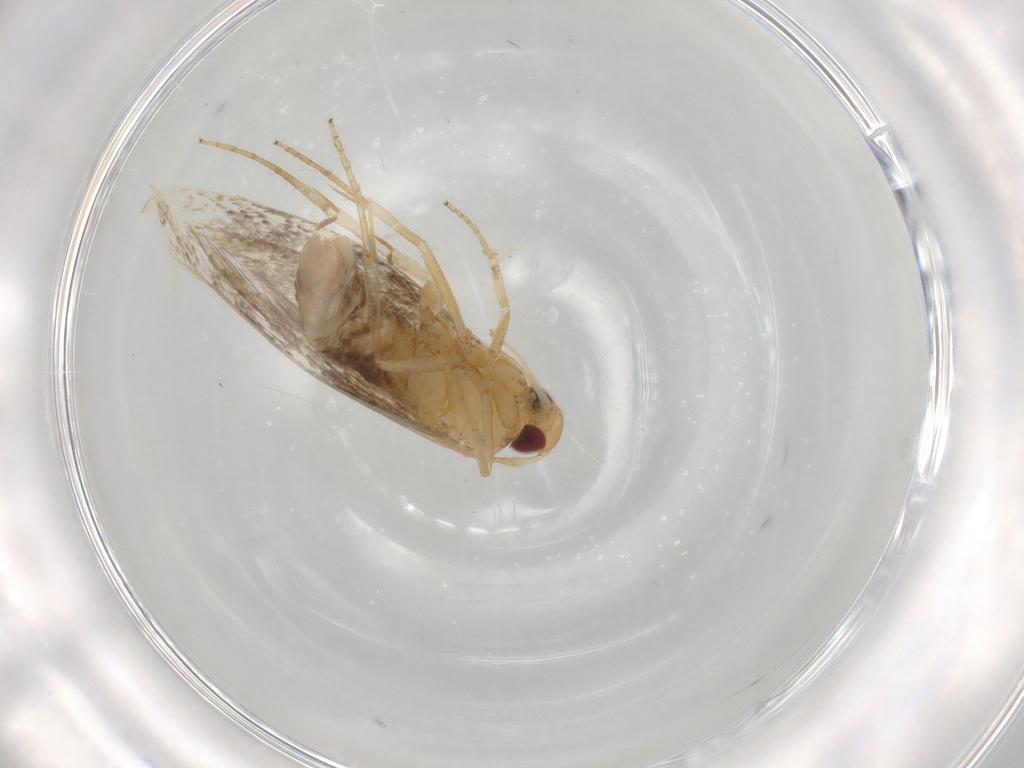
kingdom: Animalia
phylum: Arthropoda
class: Insecta
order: Lepidoptera
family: Cosmopterigidae
